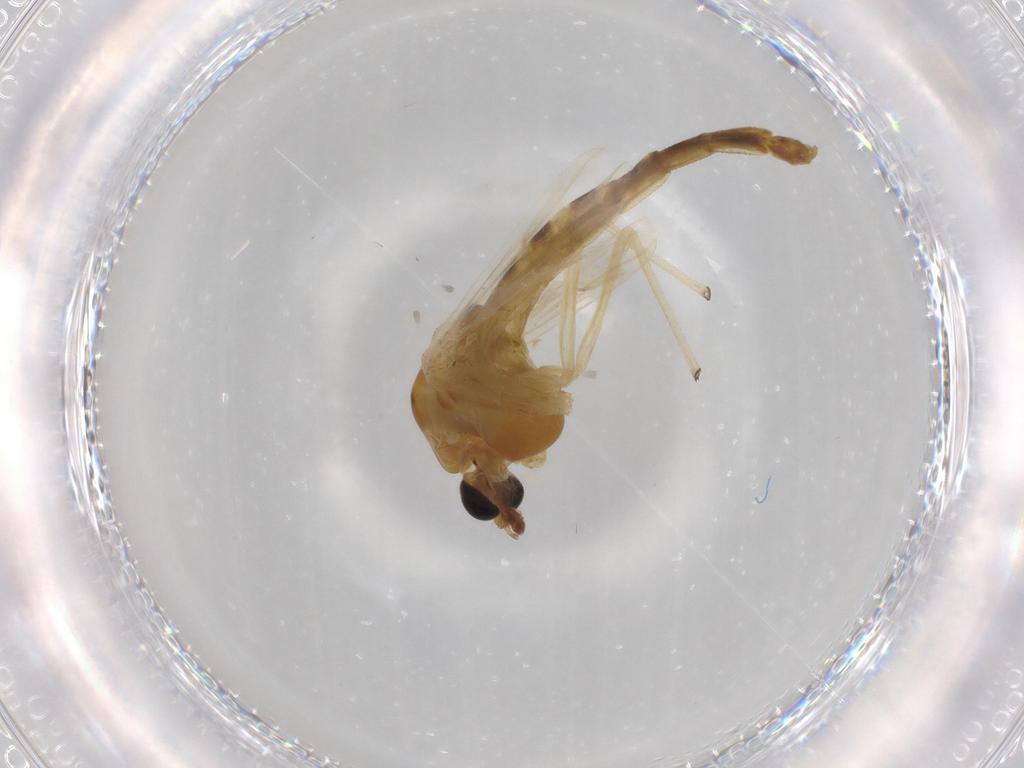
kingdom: Animalia
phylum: Arthropoda
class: Insecta
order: Diptera
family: Chironomidae
